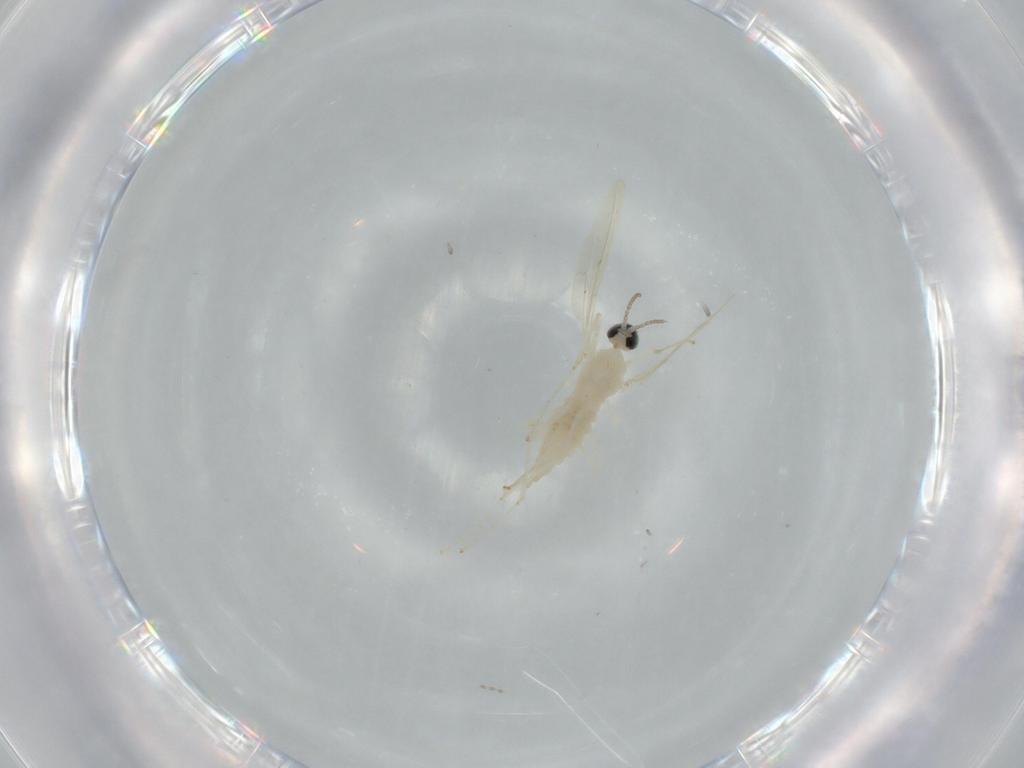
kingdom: Animalia
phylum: Arthropoda
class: Insecta
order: Diptera
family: Cecidomyiidae
